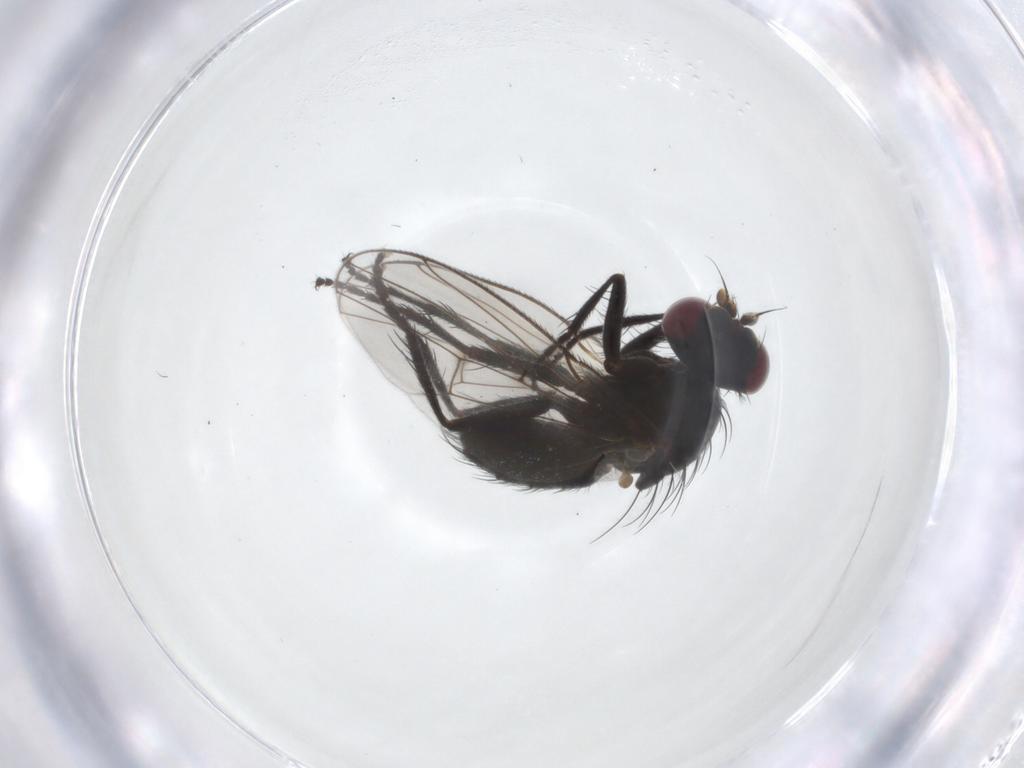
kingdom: Animalia
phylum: Arthropoda
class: Insecta
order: Diptera
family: Muscidae
